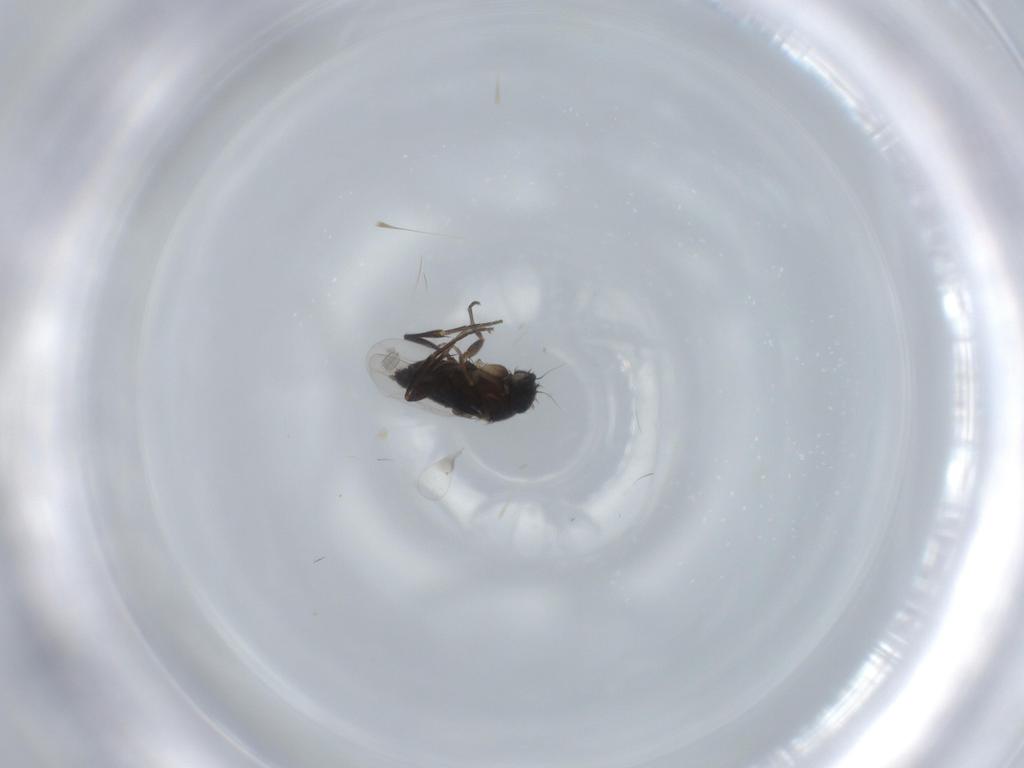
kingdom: Animalia
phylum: Arthropoda
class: Insecta
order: Diptera
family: Phoridae
